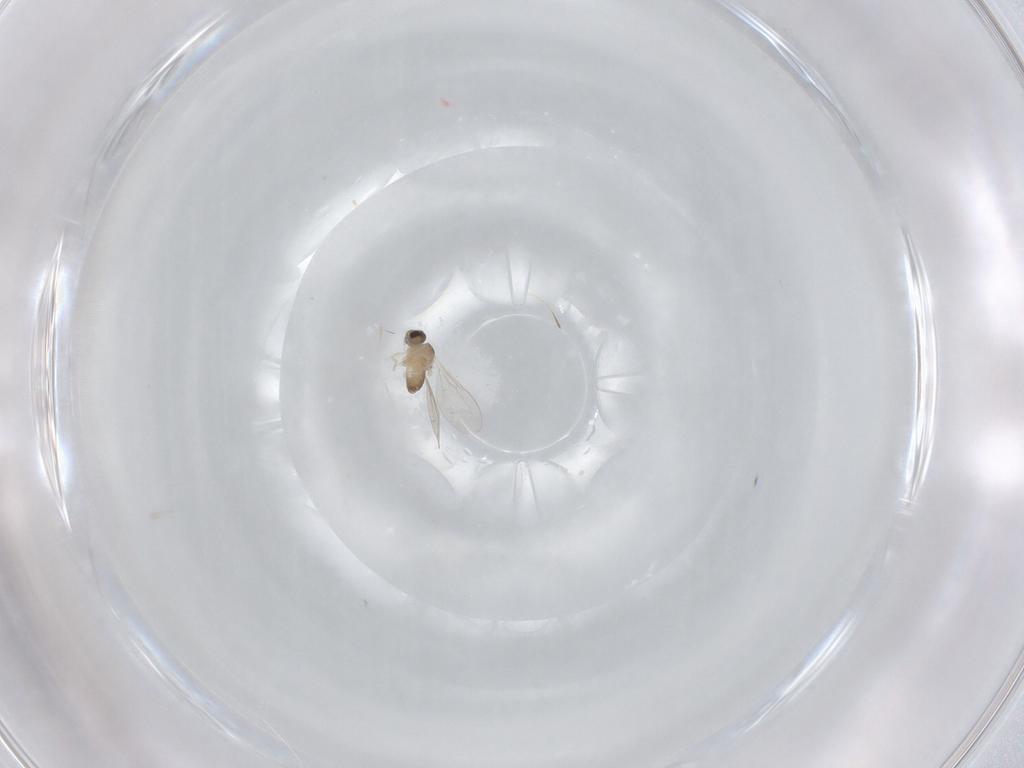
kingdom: Animalia
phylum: Arthropoda
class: Insecta
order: Diptera
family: Cecidomyiidae
